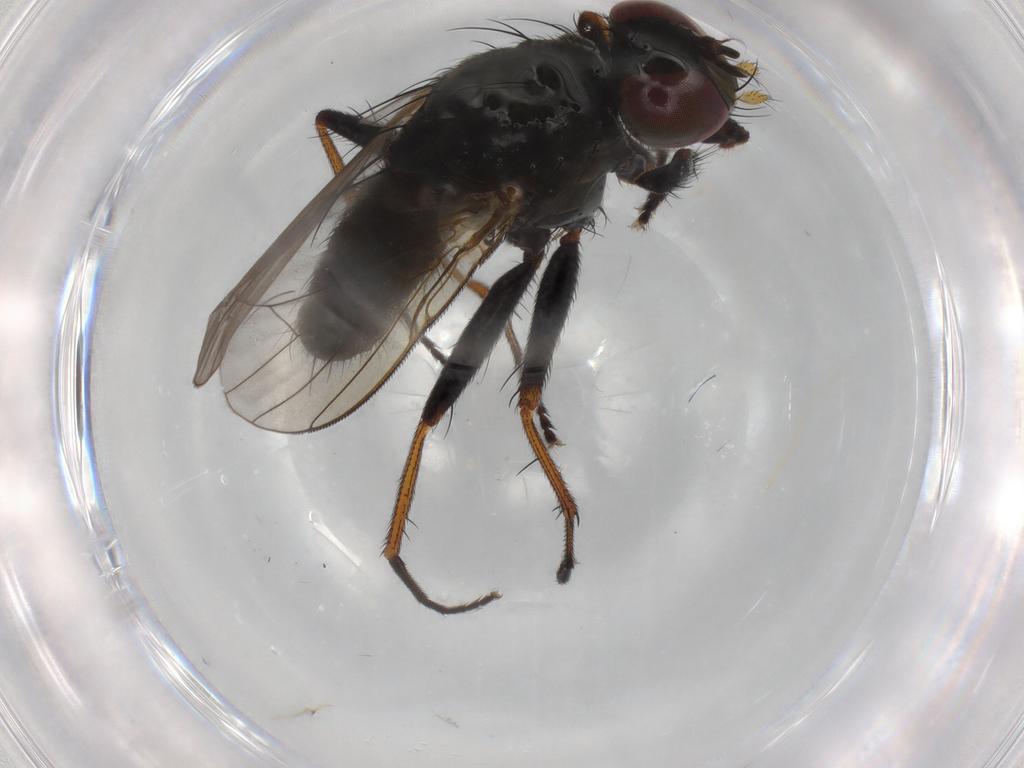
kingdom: Animalia
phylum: Arthropoda
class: Insecta
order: Diptera
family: Muscidae
